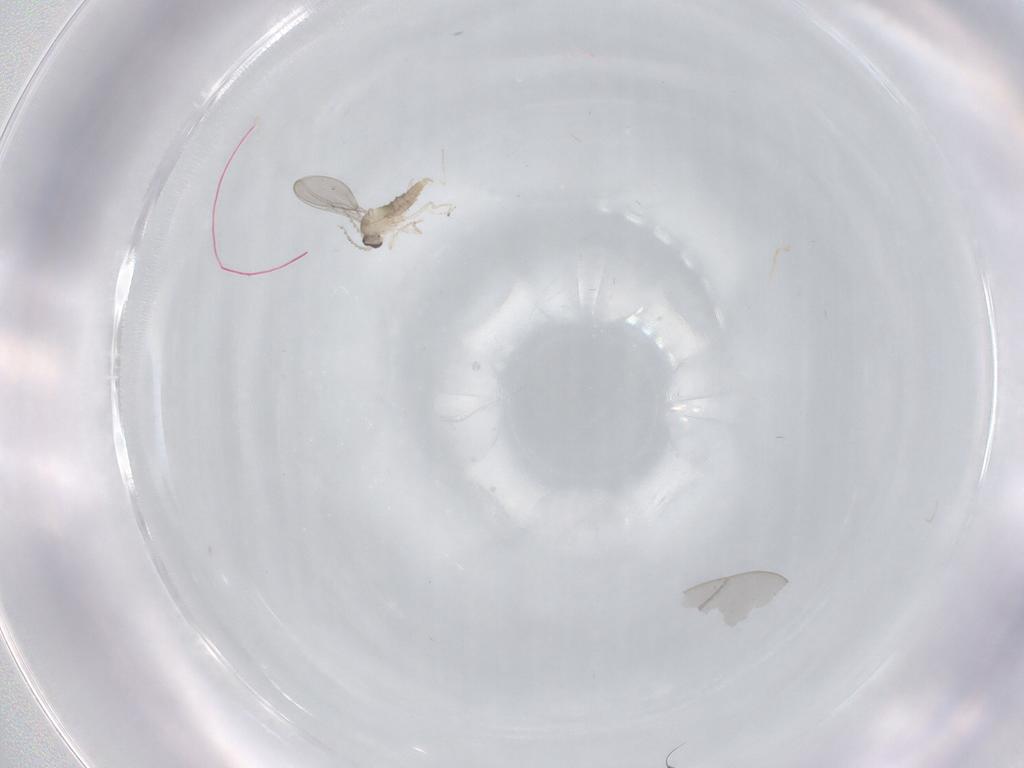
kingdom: Animalia
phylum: Arthropoda
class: Insecta
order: Diptera
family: Cecidomyiidae
